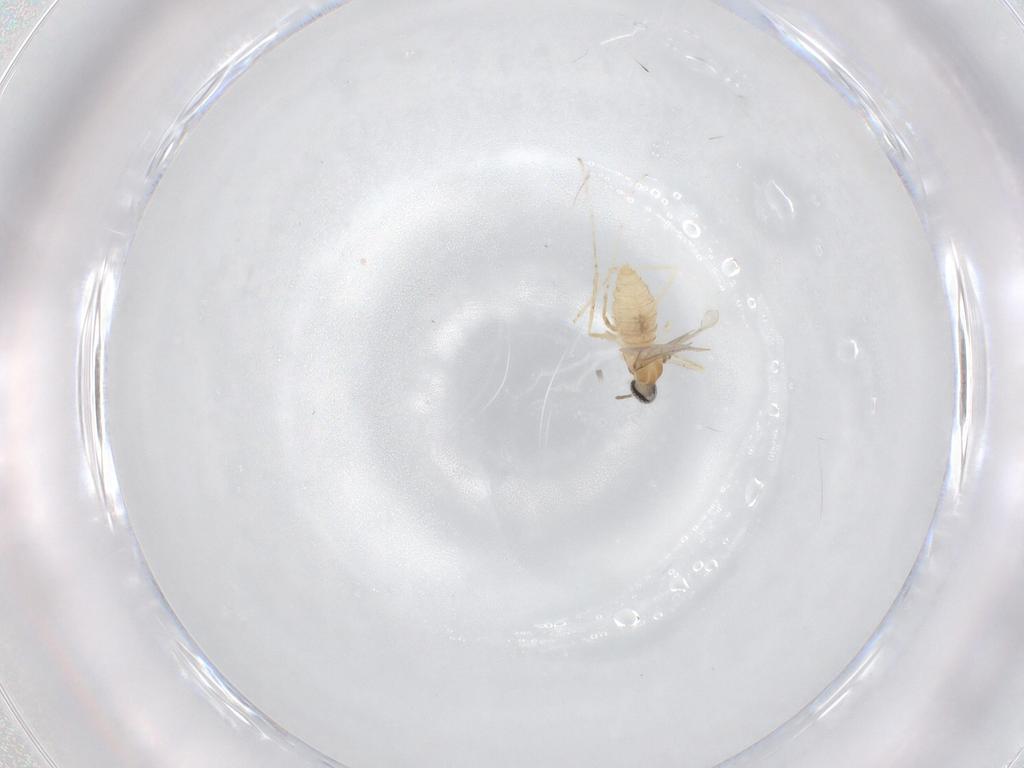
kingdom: Animalia
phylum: Arthropoda
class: Insecta
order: Diptera
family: Cecidomyiidae
